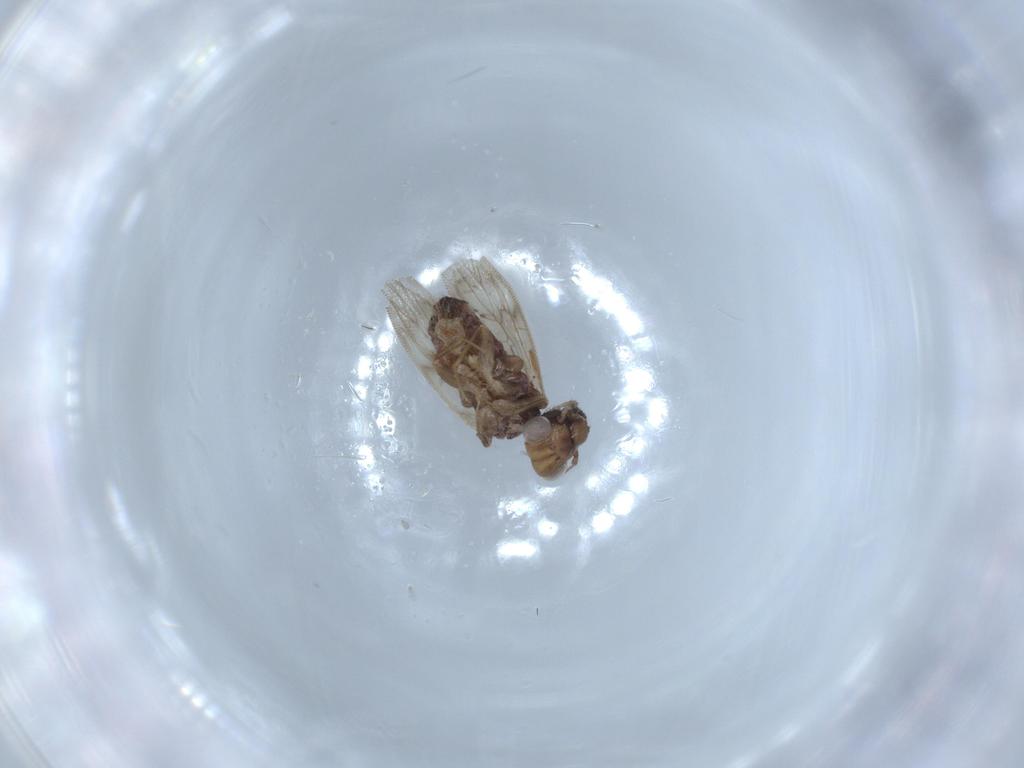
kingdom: Animalia
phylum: Arthropoda
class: Insecta
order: Psocodea
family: Lepidopsocidae
